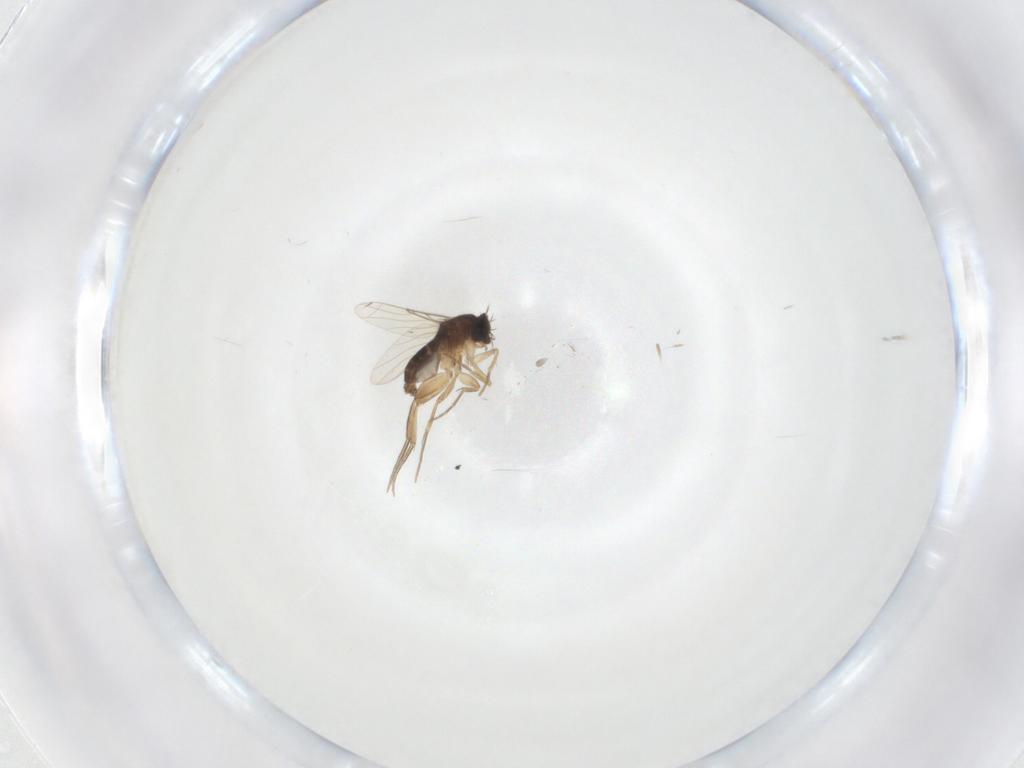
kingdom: Animalia
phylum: Arthropoda
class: Insecta
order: Diptera
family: Phoridae
